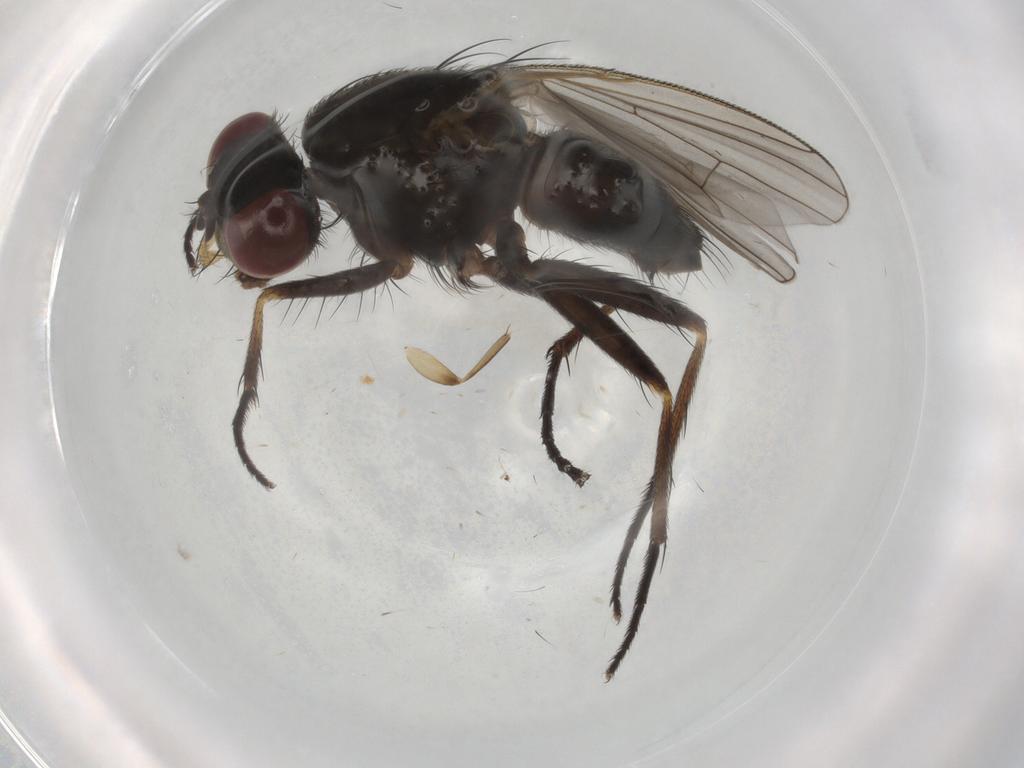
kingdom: Animalia
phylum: Arthropoda
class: Insecta
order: Diptera
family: Muscidae
